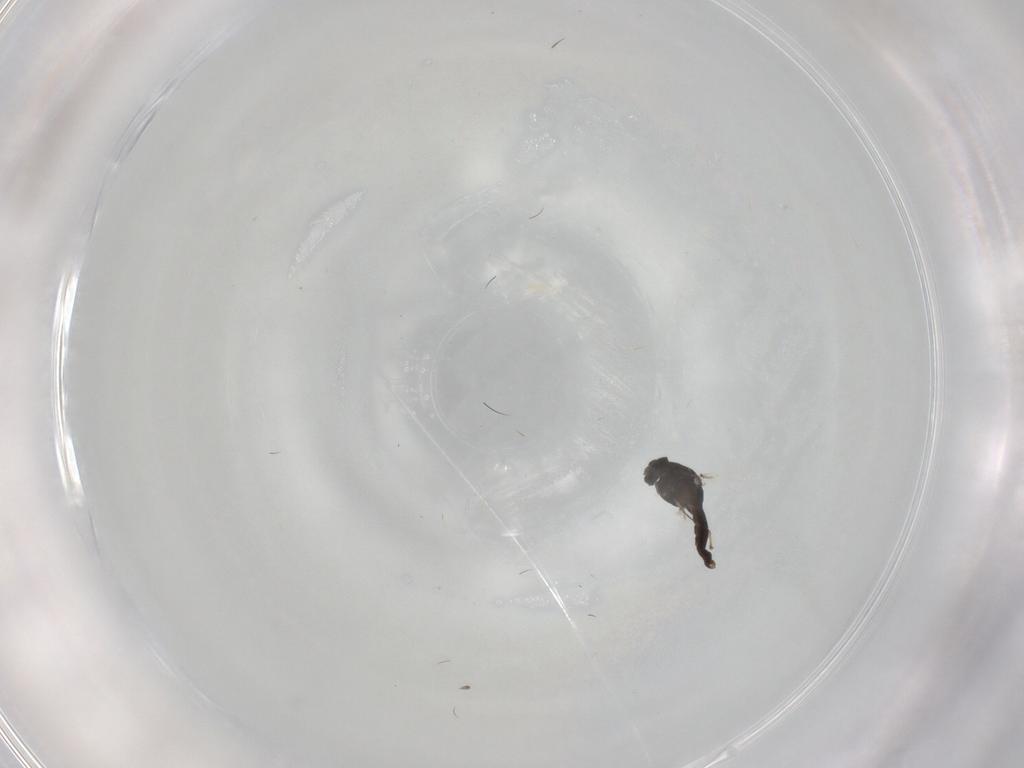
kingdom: Animalia
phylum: Arthropoda
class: Insecta
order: Diptera
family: Chironomidae
